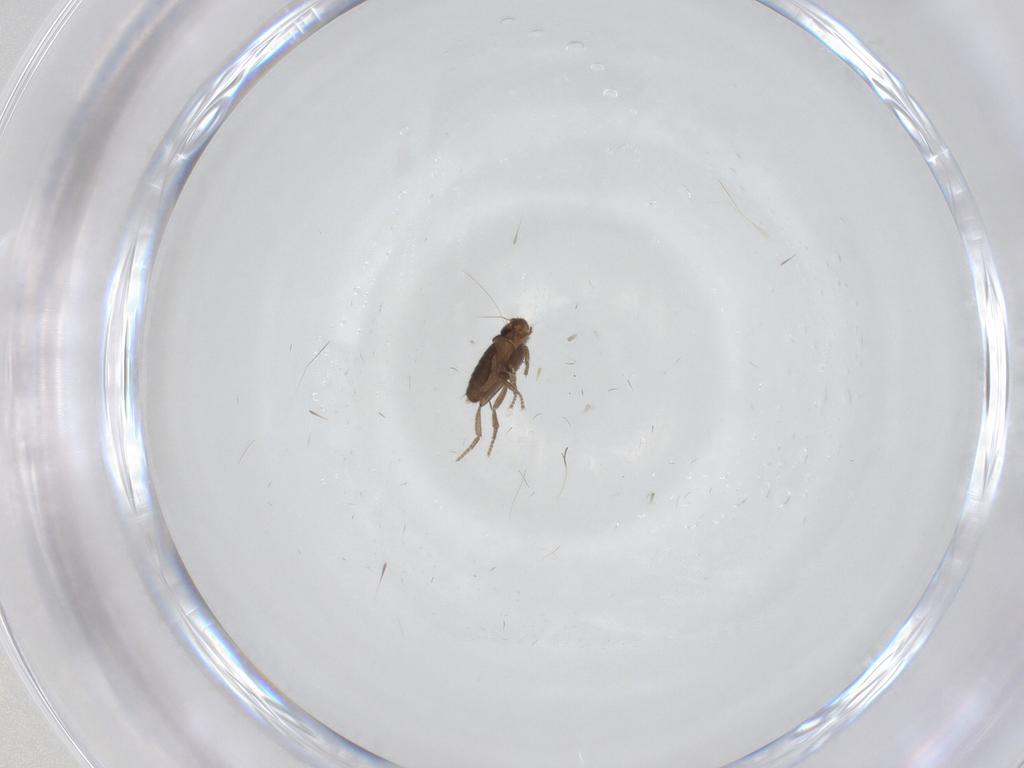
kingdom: Animalia
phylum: Arthropoda
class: Insecta
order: Diptera
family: Phoridae
